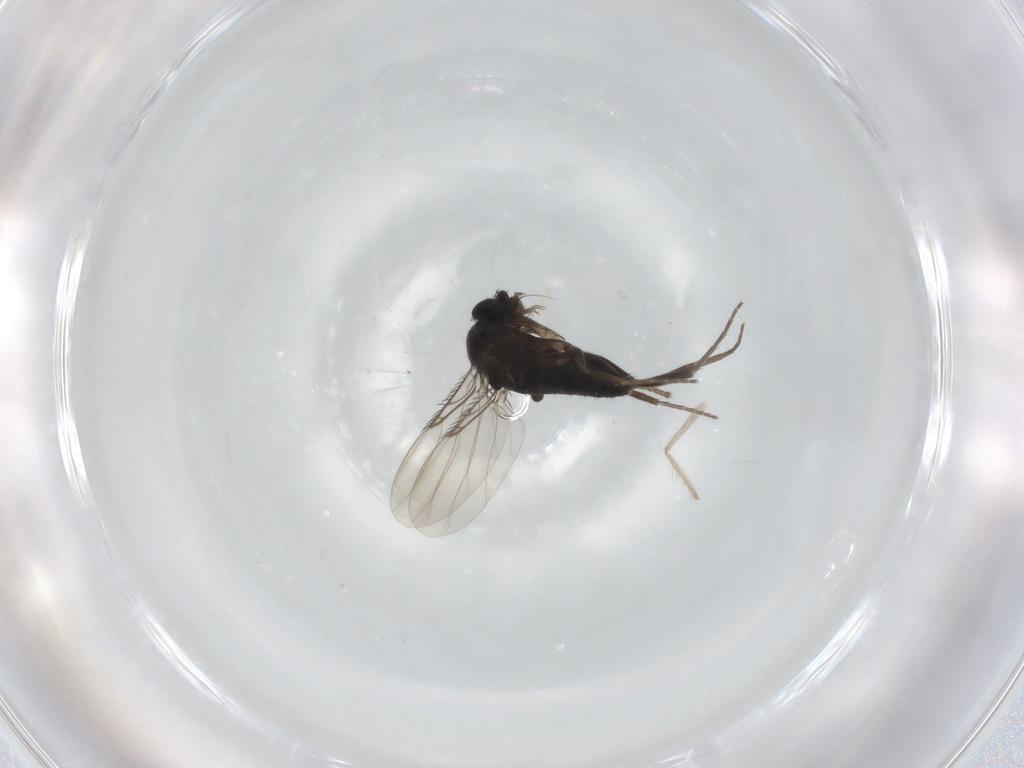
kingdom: Animalia
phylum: Arthropoda
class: Insecta
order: Diptera
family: Phoridae
